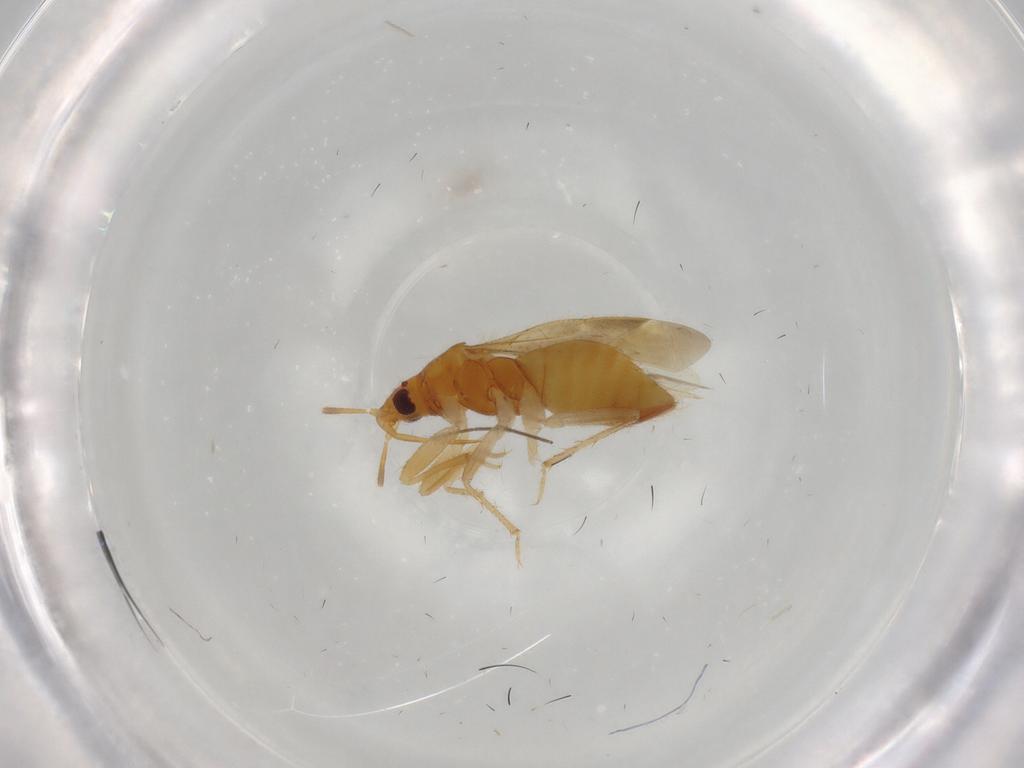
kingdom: Animalia
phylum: Arthropoda
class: Insecta
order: Hemiptera
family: Lasiochilidae
